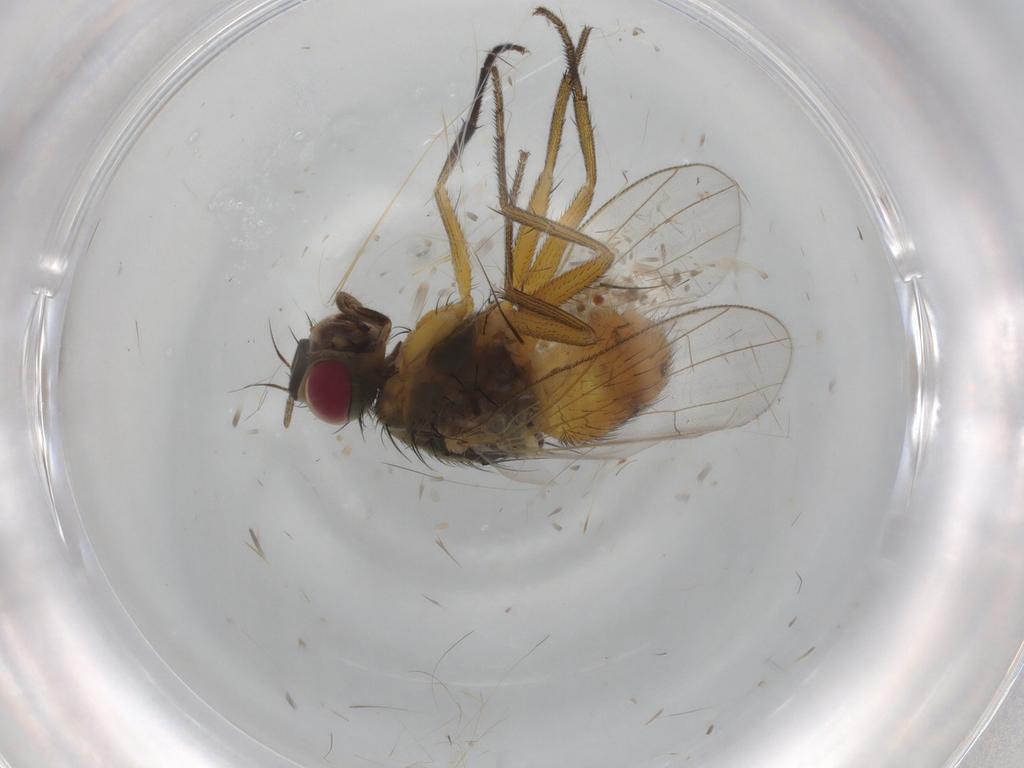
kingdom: Animalia
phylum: Arthropoda
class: Insecta
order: Diptera
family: Muscidae
